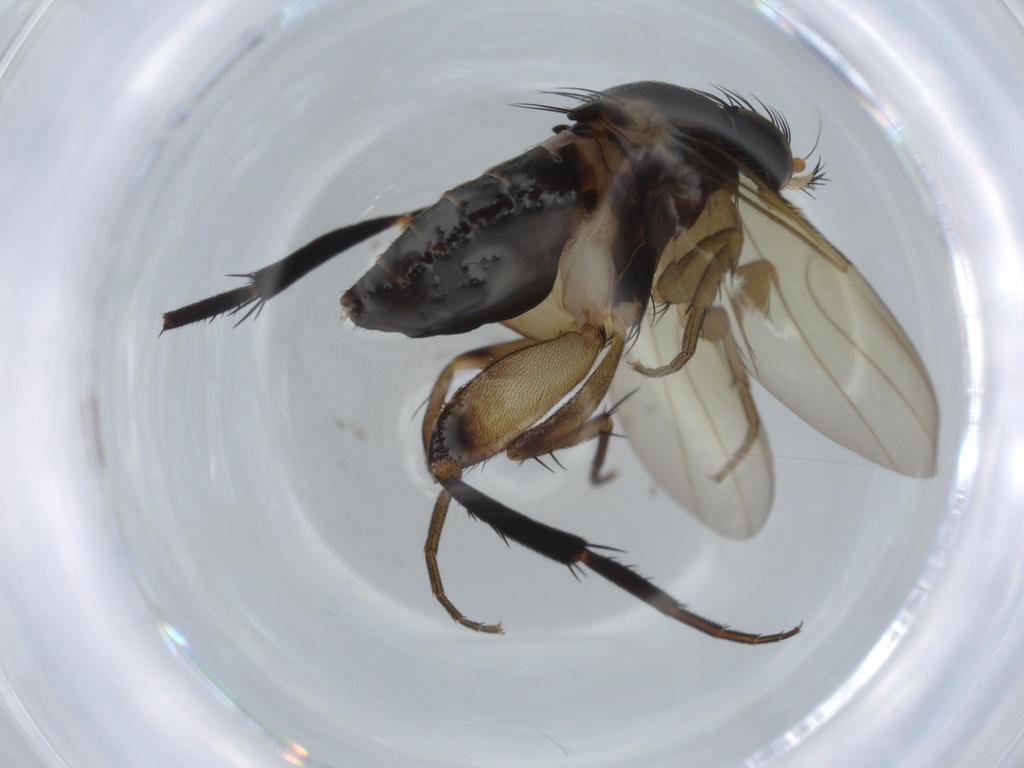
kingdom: Animalia
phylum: Arthropoda
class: Insecta
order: Diptera
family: Phoridae
